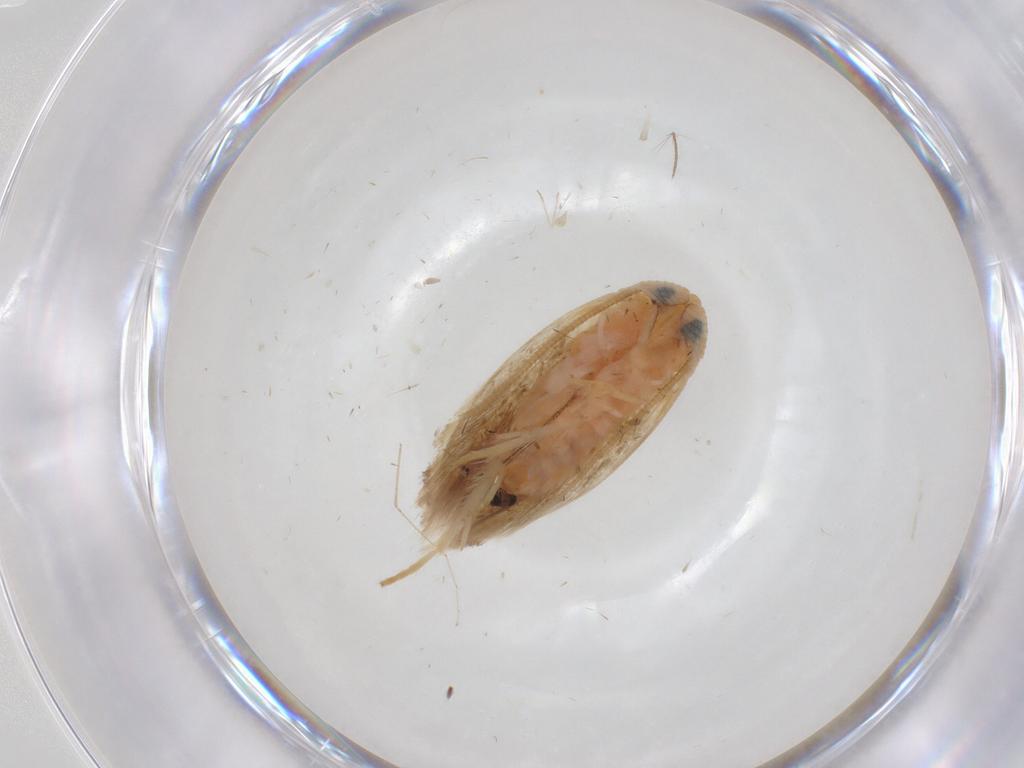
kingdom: Animalia
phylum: Arthropoda
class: Insecta
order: Lepidoptera
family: Opostegidae
